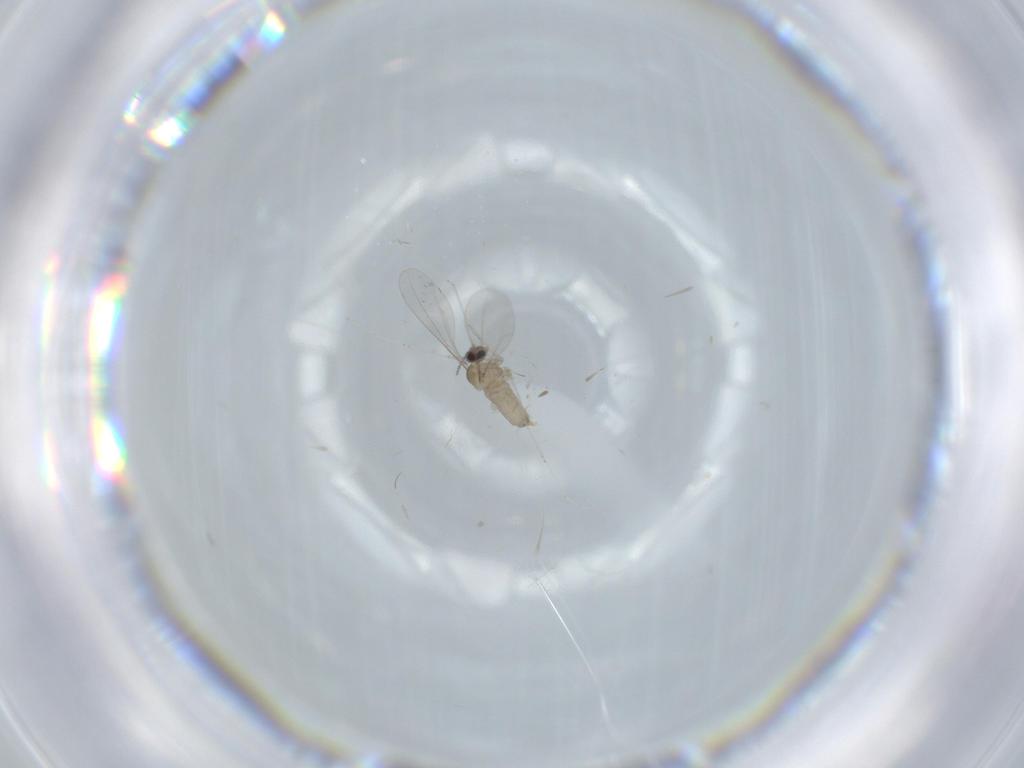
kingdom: Animalia
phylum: Arthropoda
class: Insecta
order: Diptera
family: Cecidomyiidae
